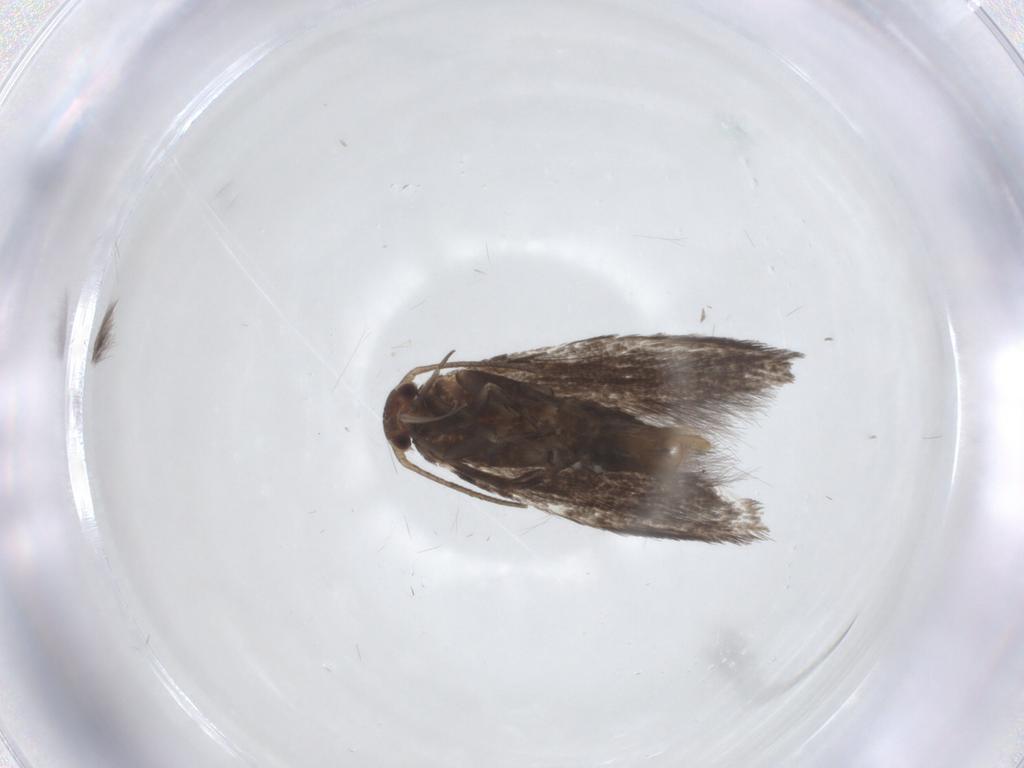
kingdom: Animalia
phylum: Arthropoda
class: Insecta
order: Lepidoptera
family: Elachistidae
